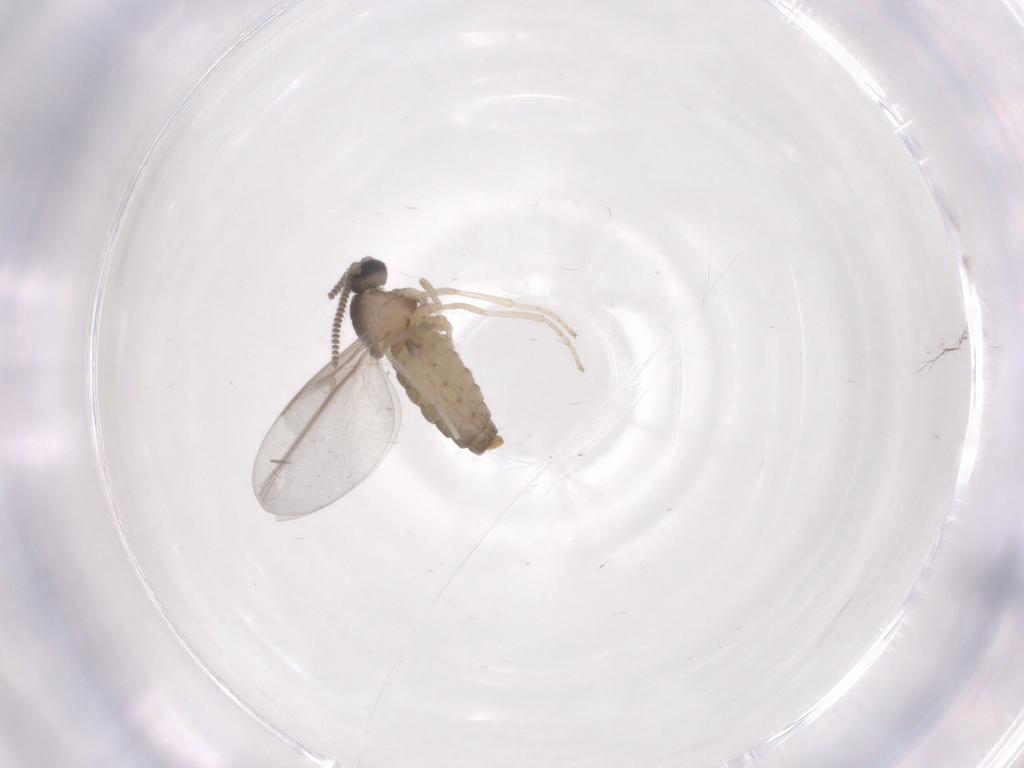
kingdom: Animalia
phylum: Arthropoda
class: Insecta
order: Diptera
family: Cecidomyiidae
